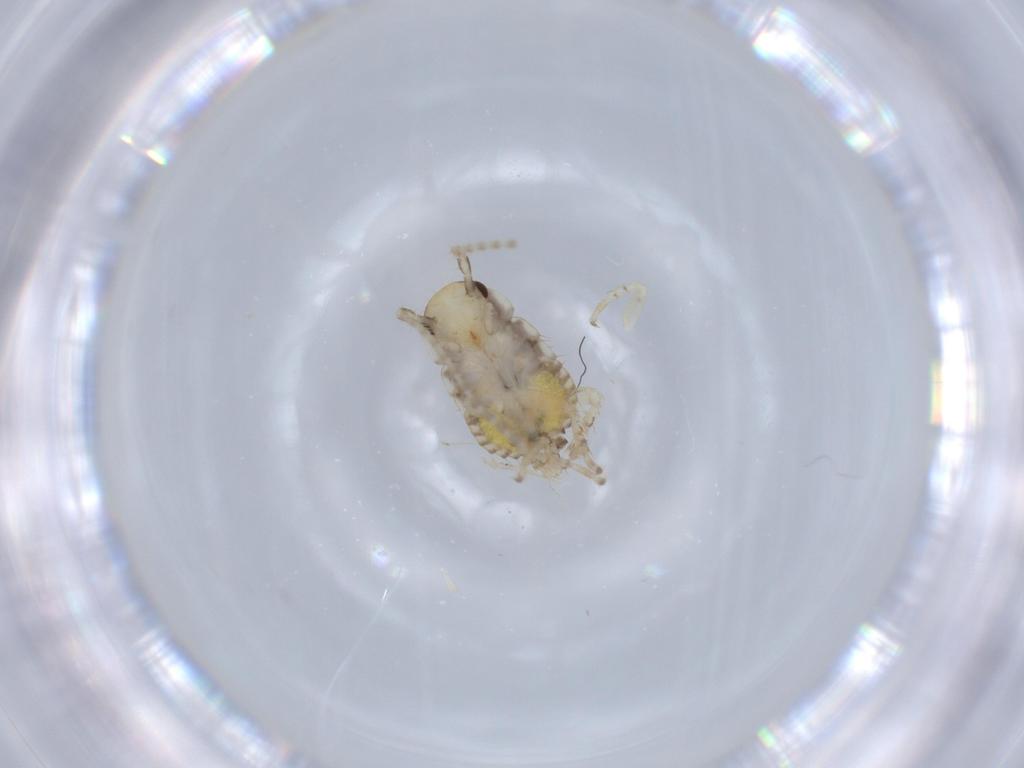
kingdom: Animalia
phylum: Arthropoda
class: Insecta
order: Blattodea
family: Ectobiidae
